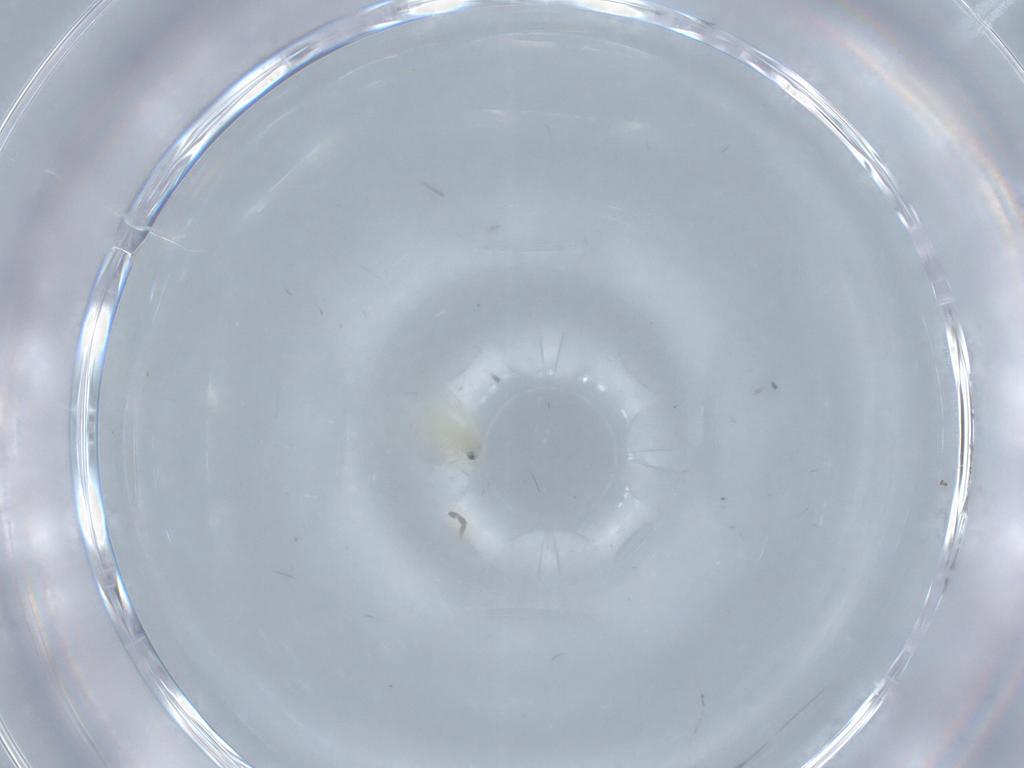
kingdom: Animalia
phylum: Arthropoda
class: Insecta
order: Hemiptera
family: Aleyrodidae
